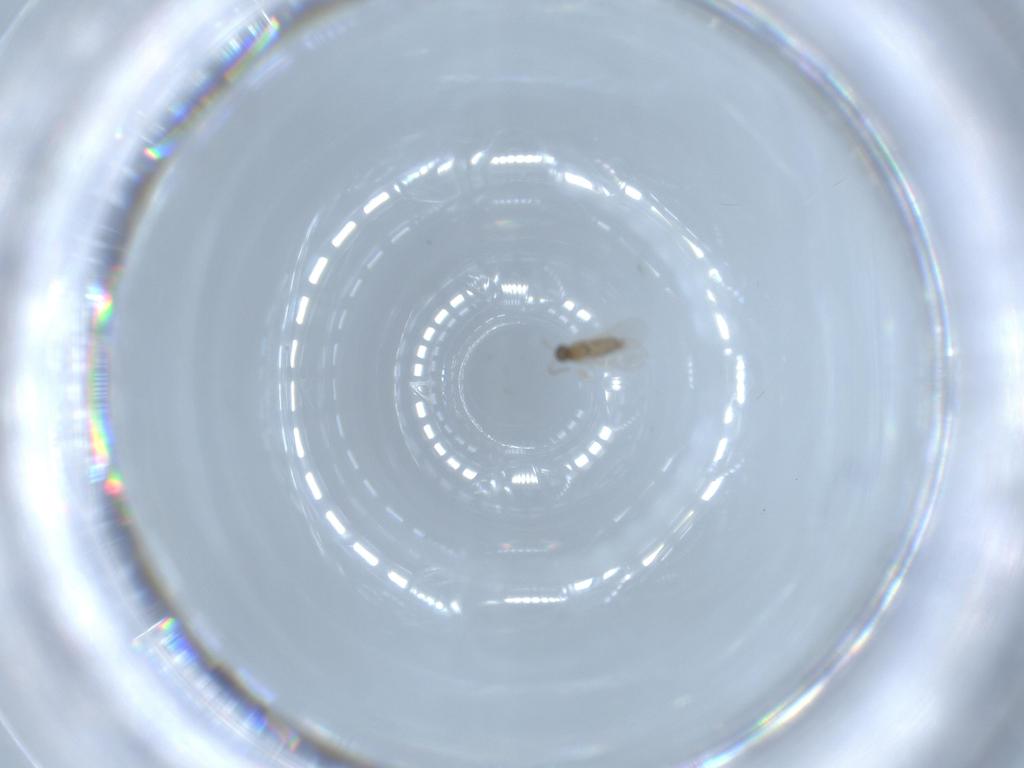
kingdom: Animalia
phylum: Arthropoda
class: Insecta
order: Diptera
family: Cecidomyiidae
